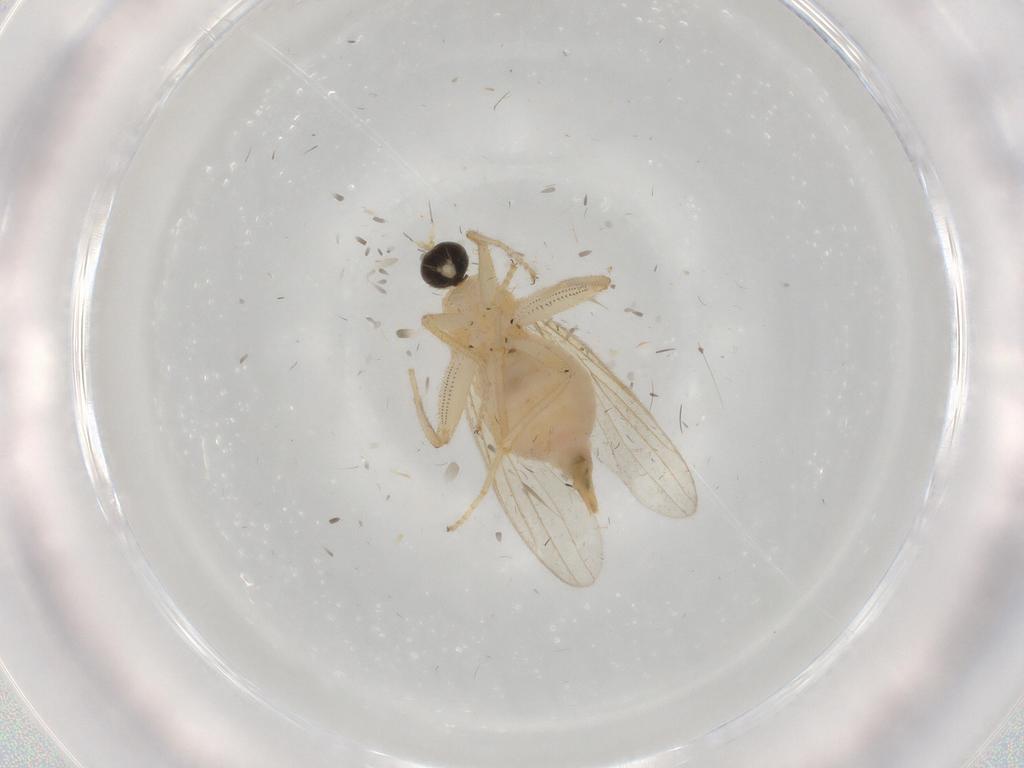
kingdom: Animalia
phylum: Arthropoda
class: Insecta
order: Diptera
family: Chironomidae
